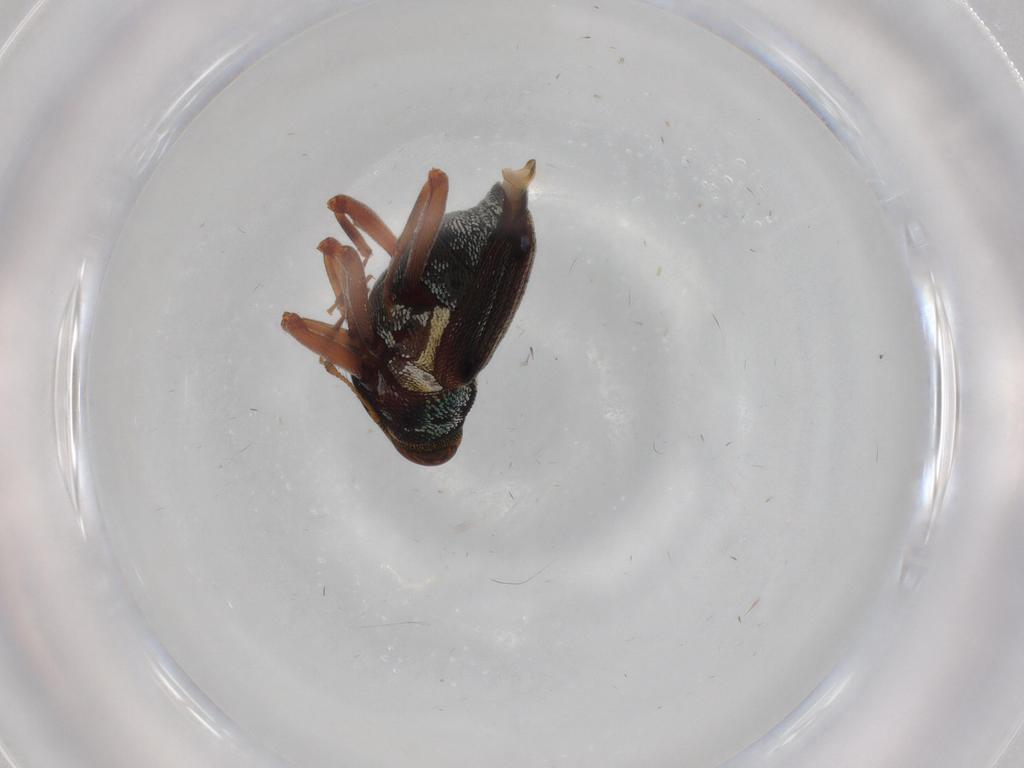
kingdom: Animalia
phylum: Arthropoda
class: Insecta
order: Coleoptera
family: Curculionidae
